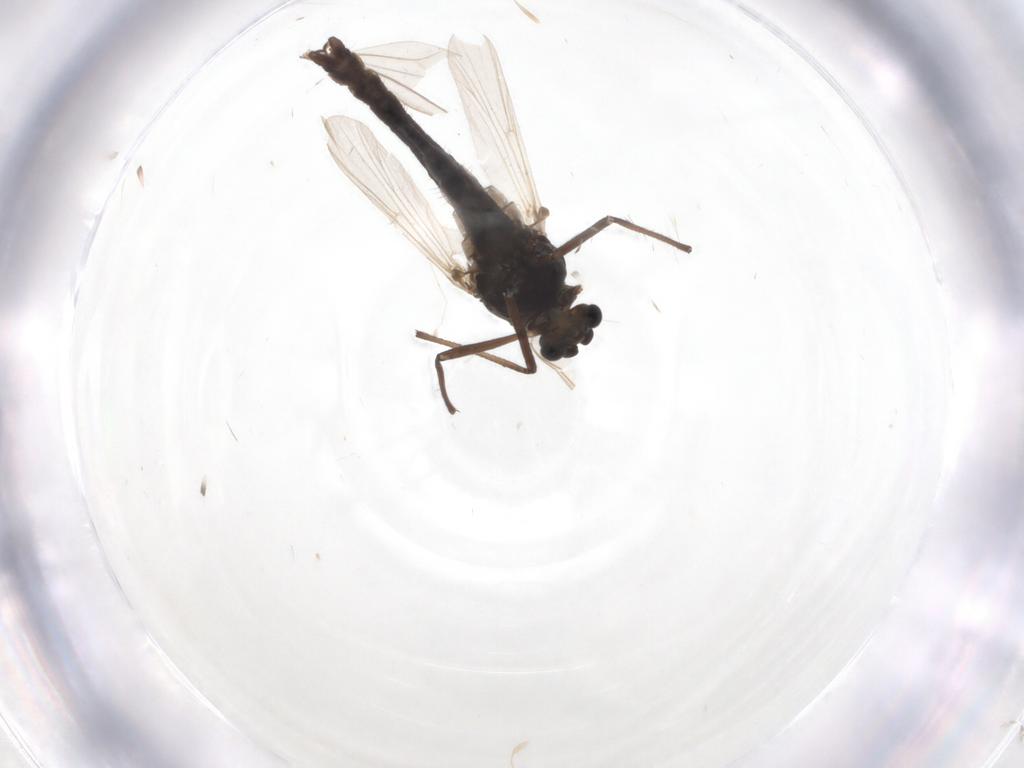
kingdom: Animalia
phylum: Arthropoda
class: Insecta
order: Diptera
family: Chironomidae
